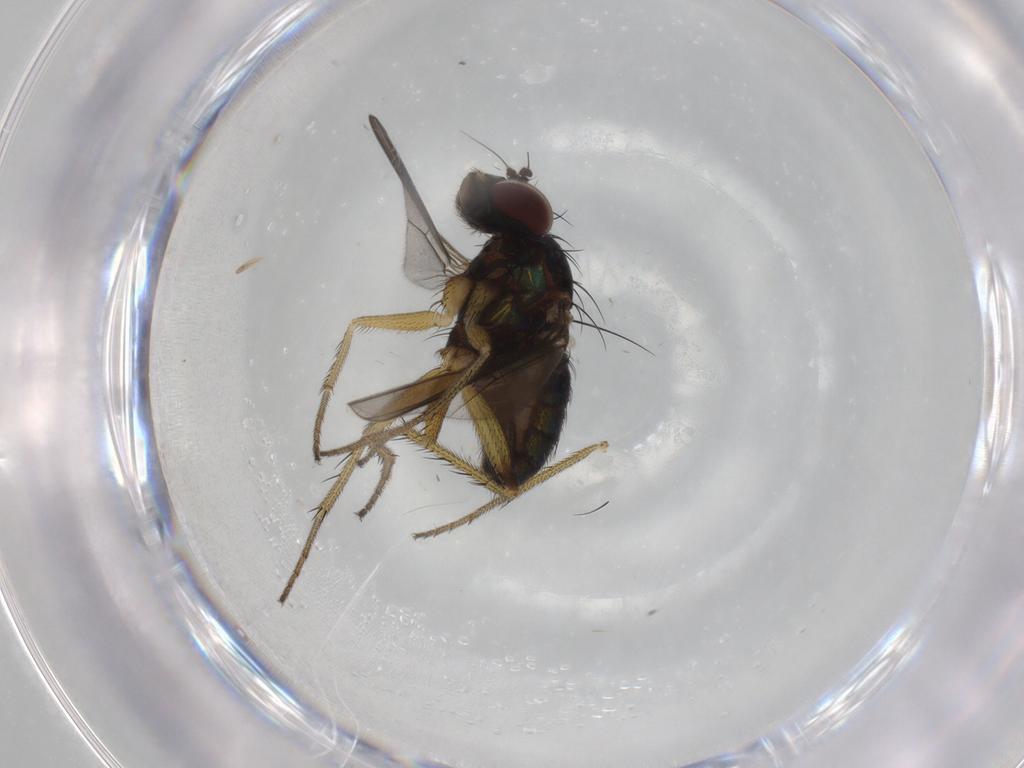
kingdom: Animalia
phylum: Arthropoda
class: Insecta
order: Diptera
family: Dolichopodidae
